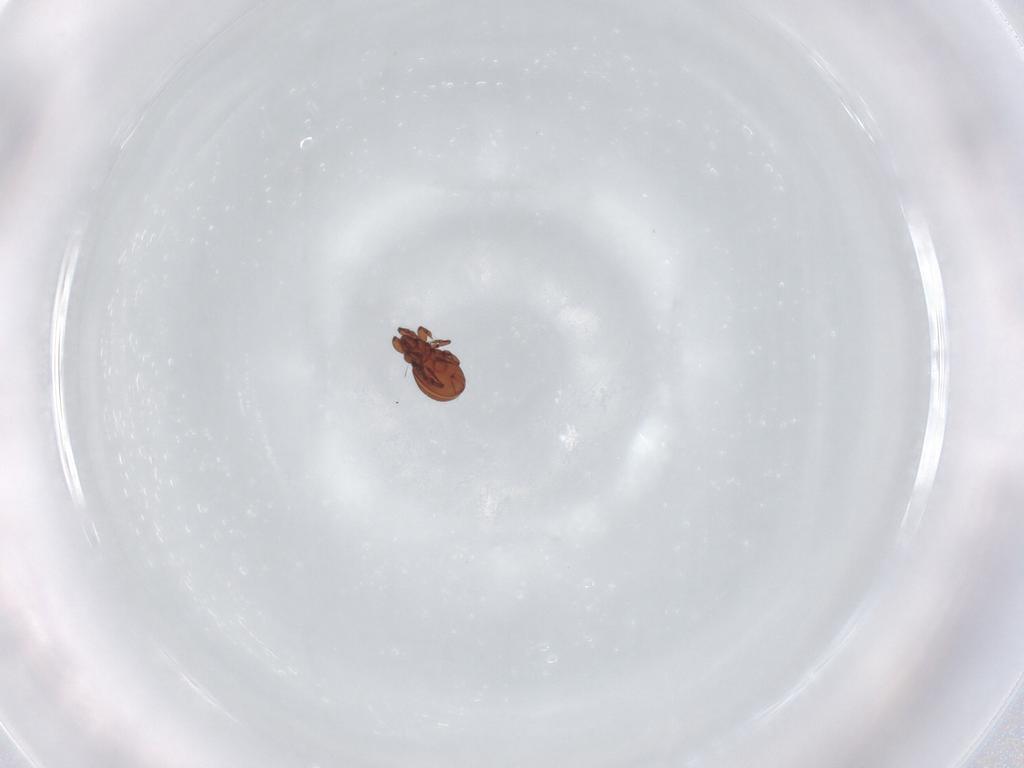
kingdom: Animalia
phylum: Arthropoda
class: Arachnida
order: Sarcoptiformes
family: Eremaeidae
